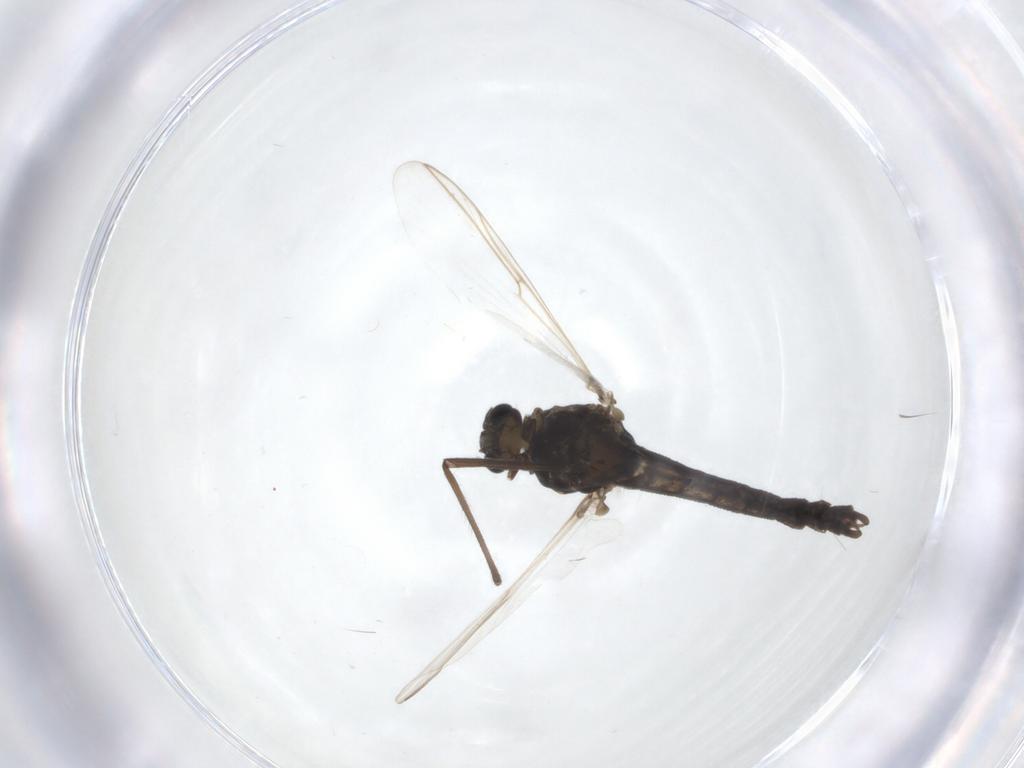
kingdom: Animalia
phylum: Arthropoda
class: Insecta
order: Diptera
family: Chironomidae
